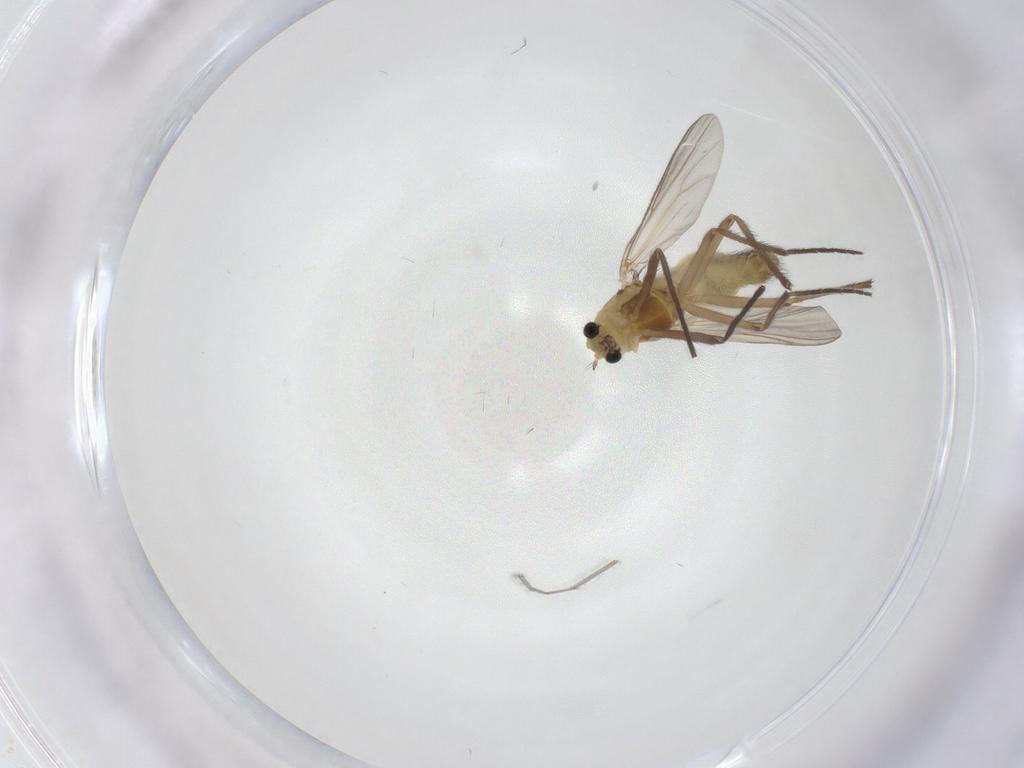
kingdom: Animalia
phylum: Arthropoda
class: Insecta
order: Diptera
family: Chironomidae
